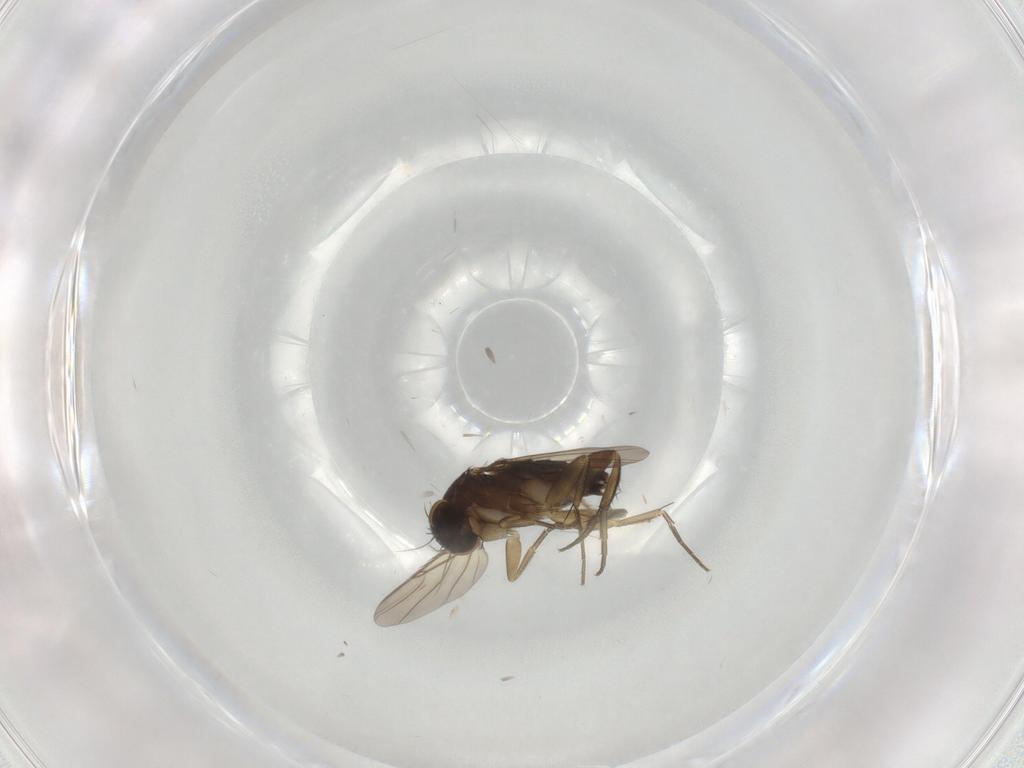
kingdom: Animalia
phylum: Arthropoda
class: Insecta
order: Diptera
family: Phoridae
